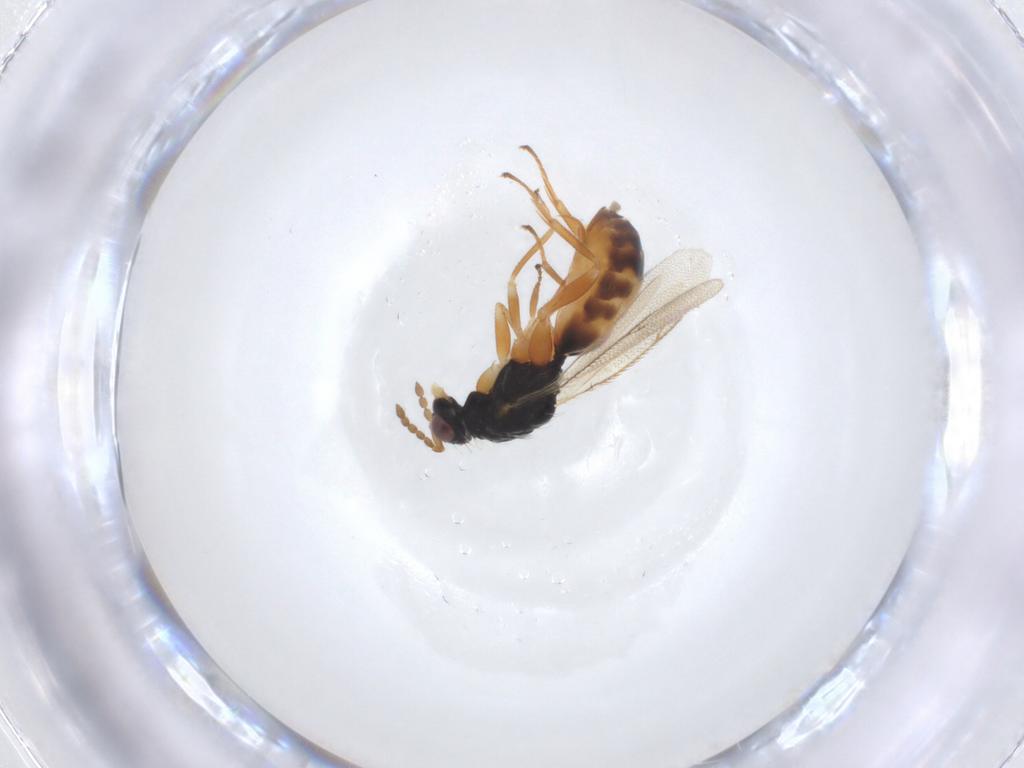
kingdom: Animalia
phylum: Arthropoda
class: Insecta
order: Hymenoptera
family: Eulophidae
